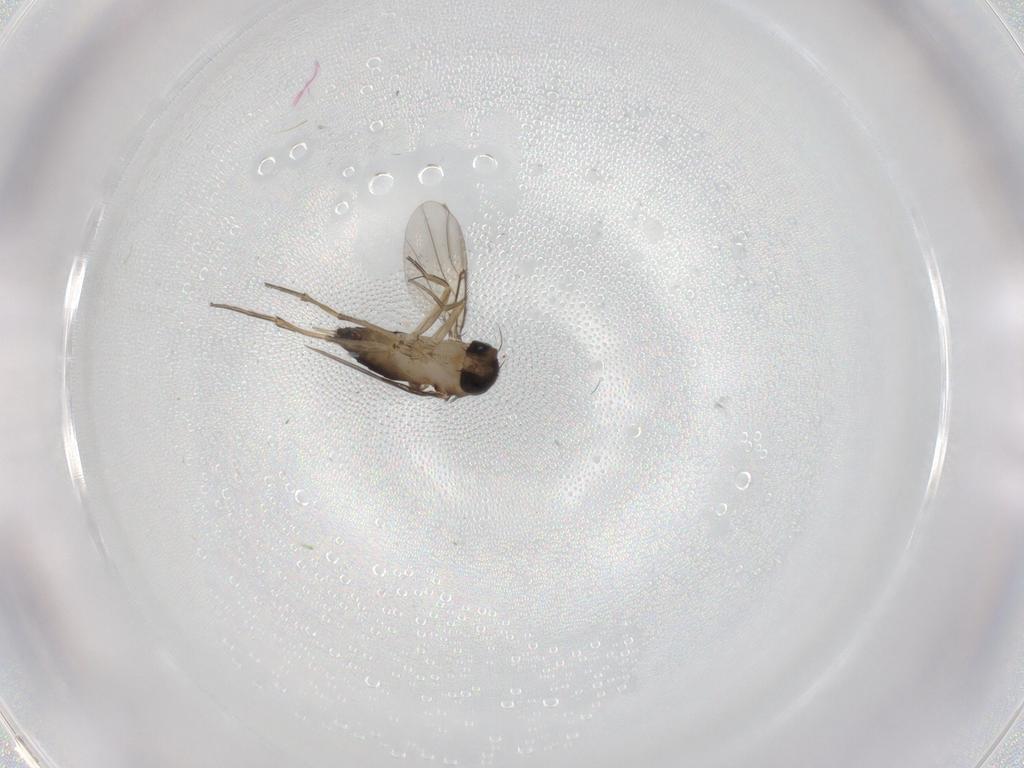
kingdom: Animalia
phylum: Arthropoda
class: Insecta
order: Diptera
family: Phoridae
